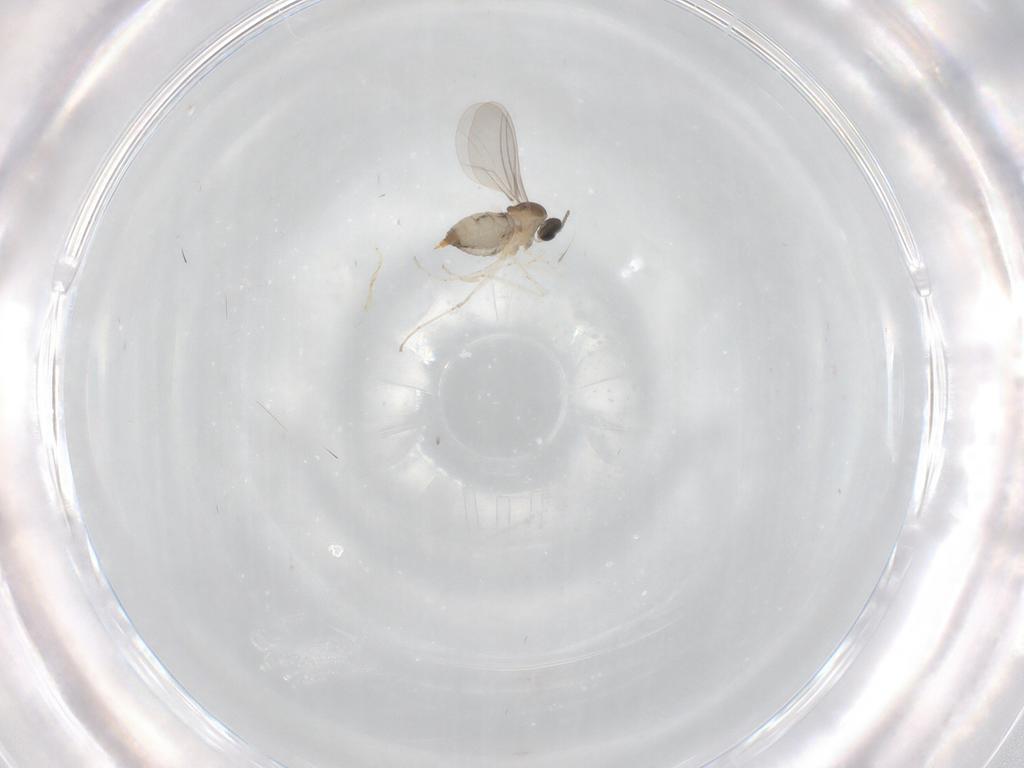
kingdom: Animalia
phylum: Arthropoda
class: Insecta
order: Diptera
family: Cecidomyiidae
